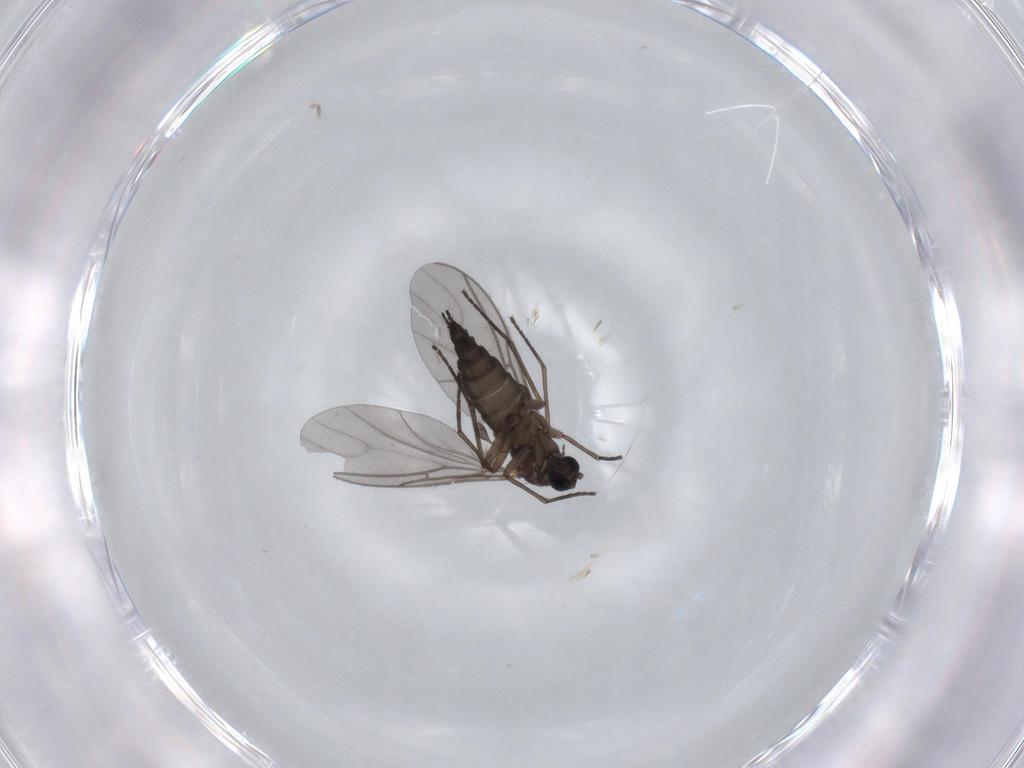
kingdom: Animalia
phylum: Arthropoda
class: Insecta
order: Diptera
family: Sciaridae
